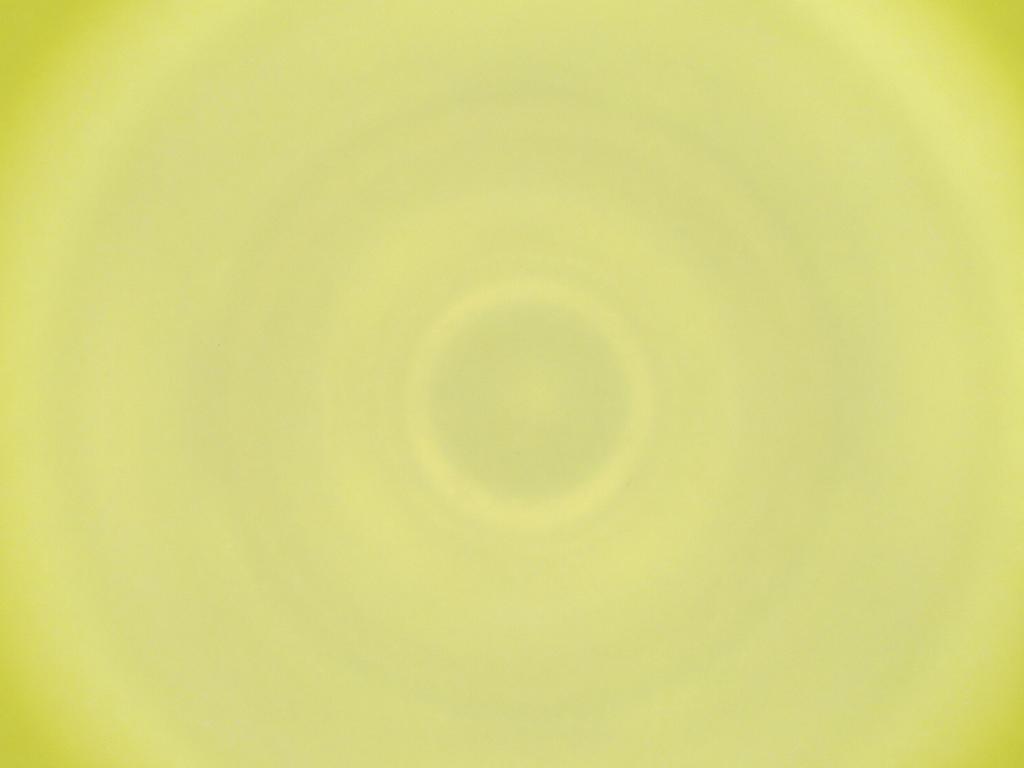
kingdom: Animalia
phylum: Arthropoda
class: Insecta
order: Diptera
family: Cecidomyiidae
